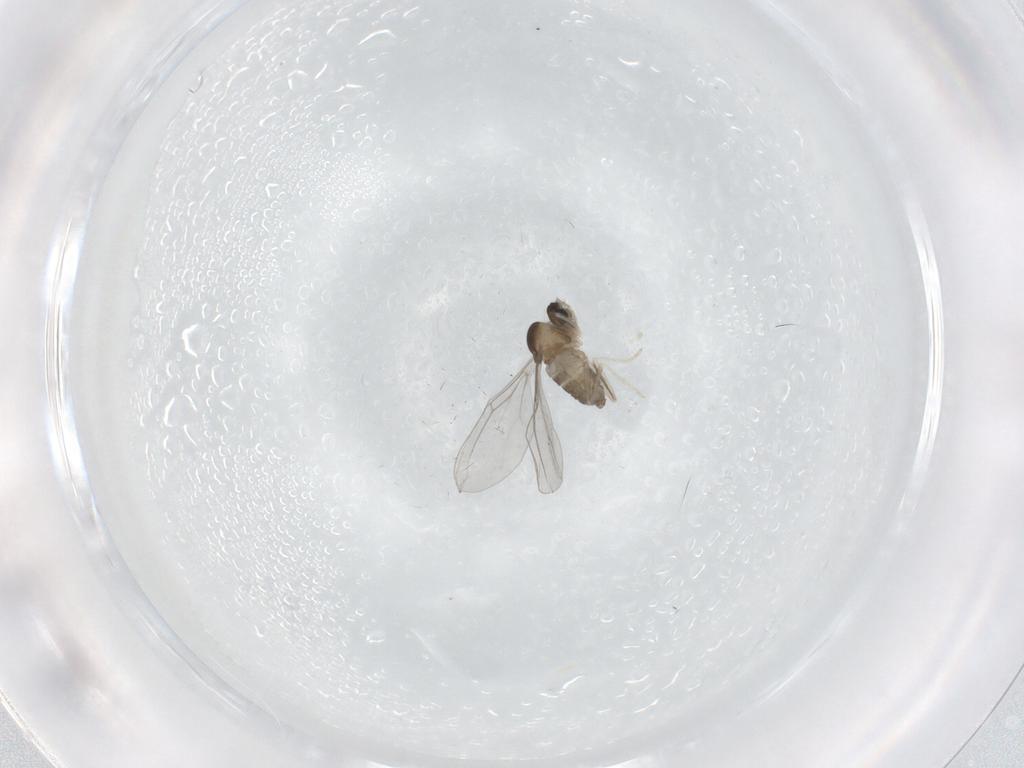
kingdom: Animalia
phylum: Arthropoda
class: Insecta
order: Diptera
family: Cecidomyiidae
